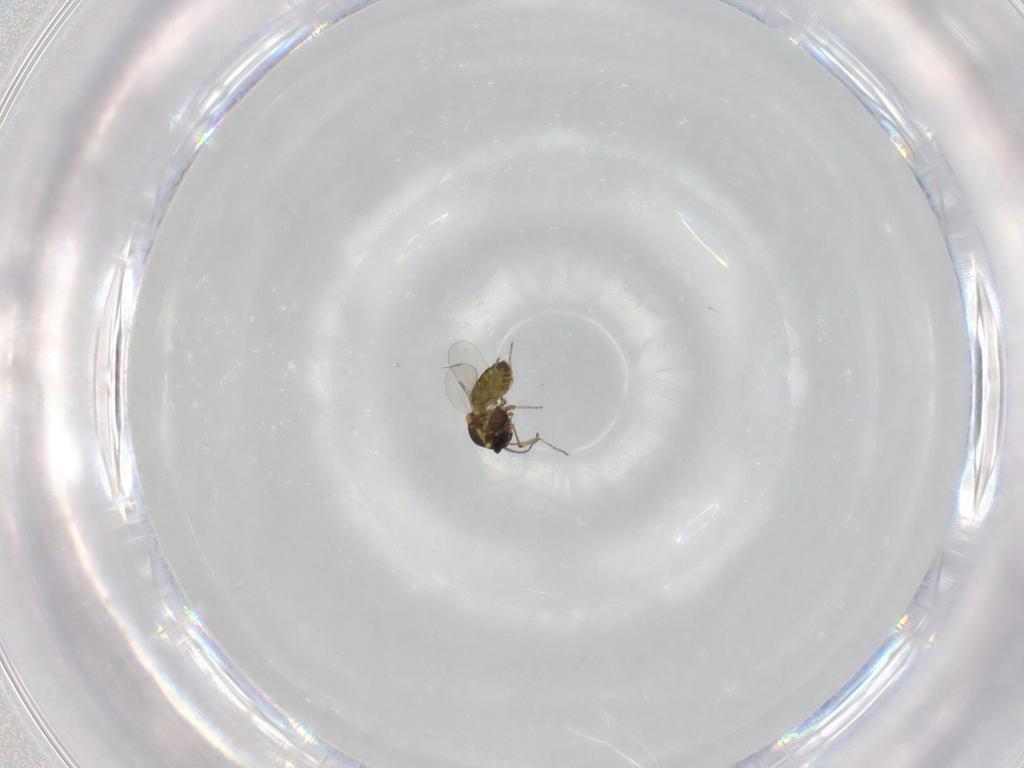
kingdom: Animalia
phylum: Arthropoda
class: Insecta
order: Diptera
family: Ceratopogonidae
